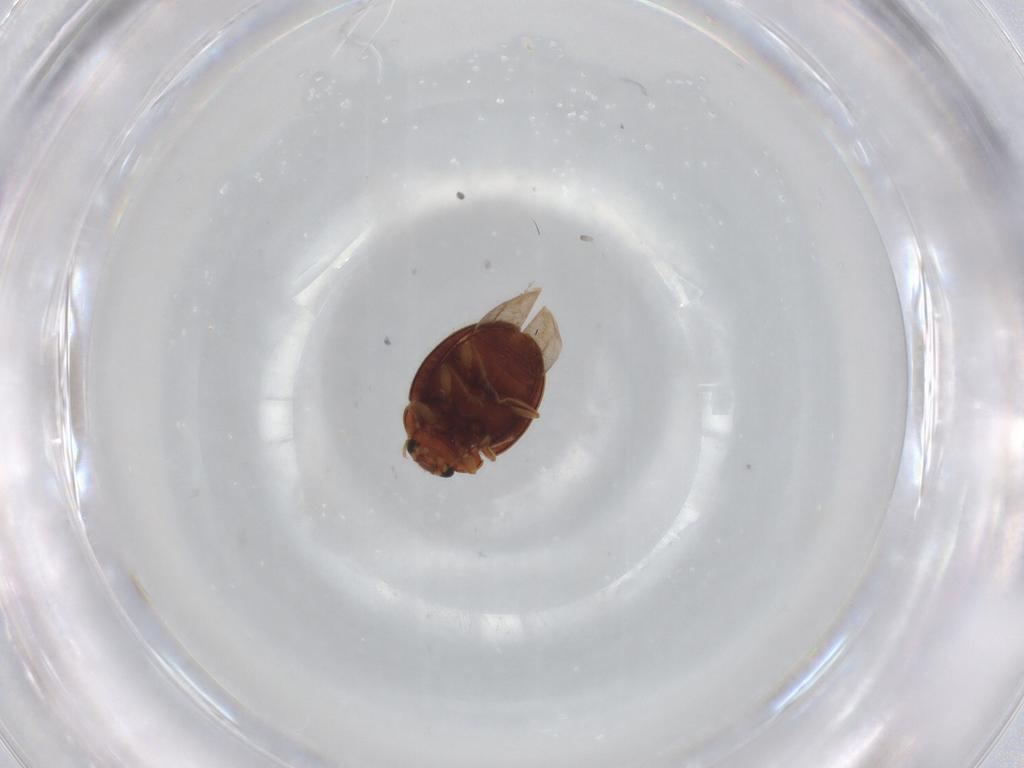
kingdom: Animalia
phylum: Arthropoda
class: Insecta
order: Coleoptera
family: Anamorphidae
